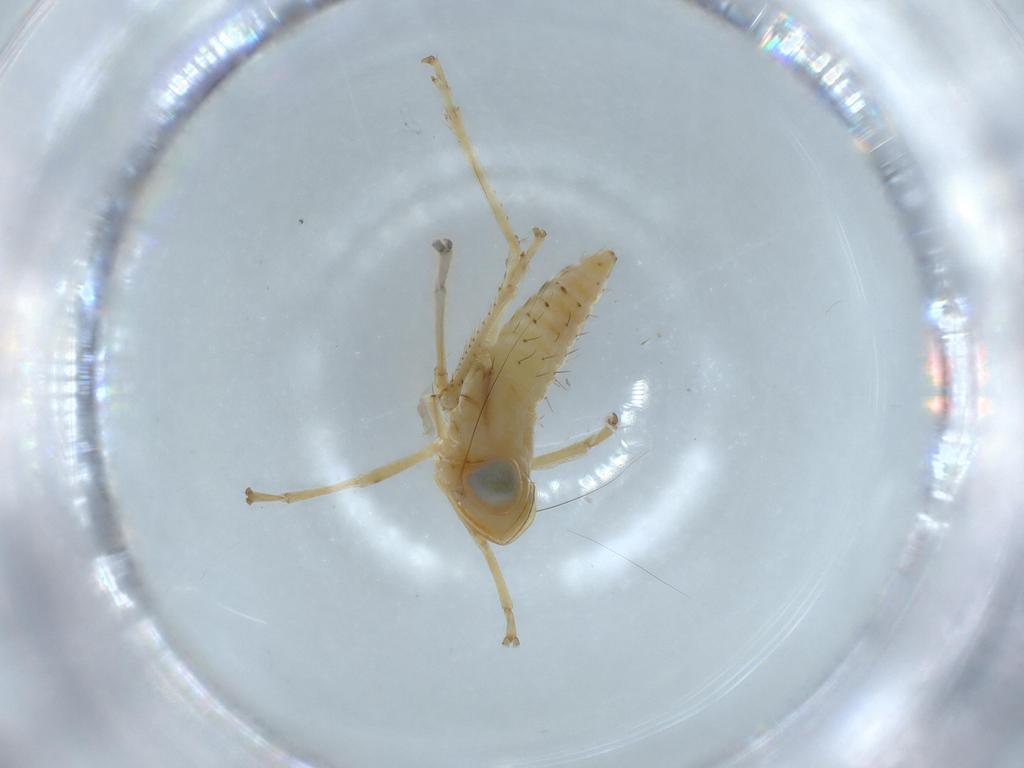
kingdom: Animalia
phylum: Arthropoda
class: Insecta
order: Hemiptera
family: Cicadellidae
